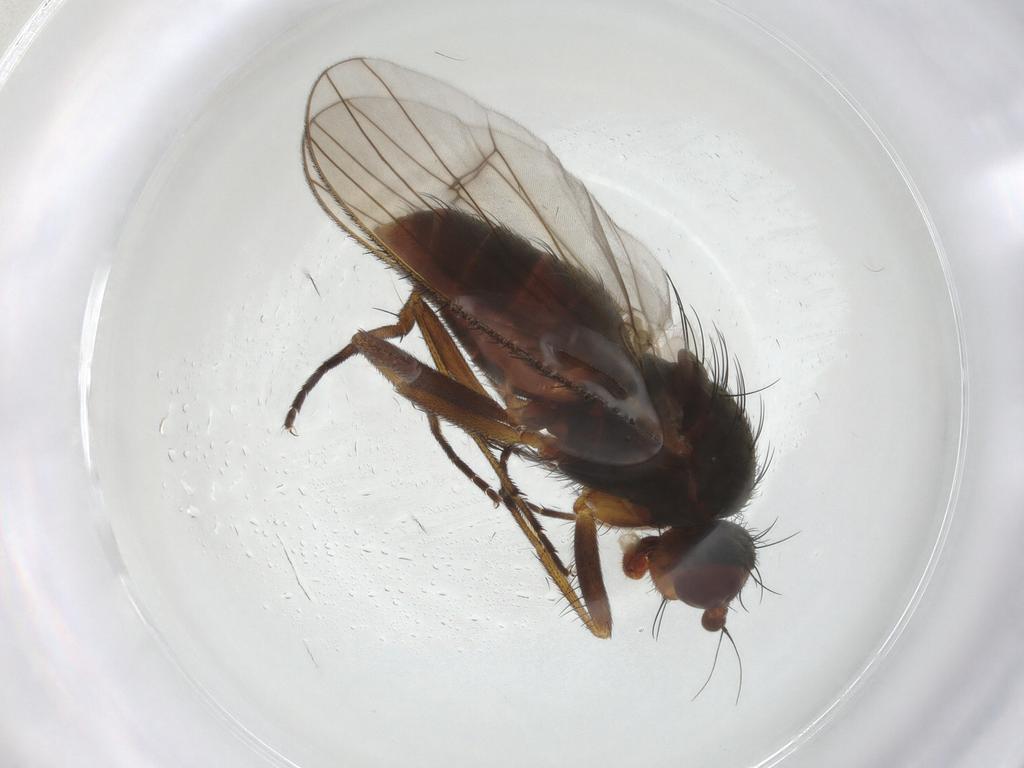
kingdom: Animalia
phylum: Arthropoda
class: Insecta
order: Diptera
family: Heleomyzidae
